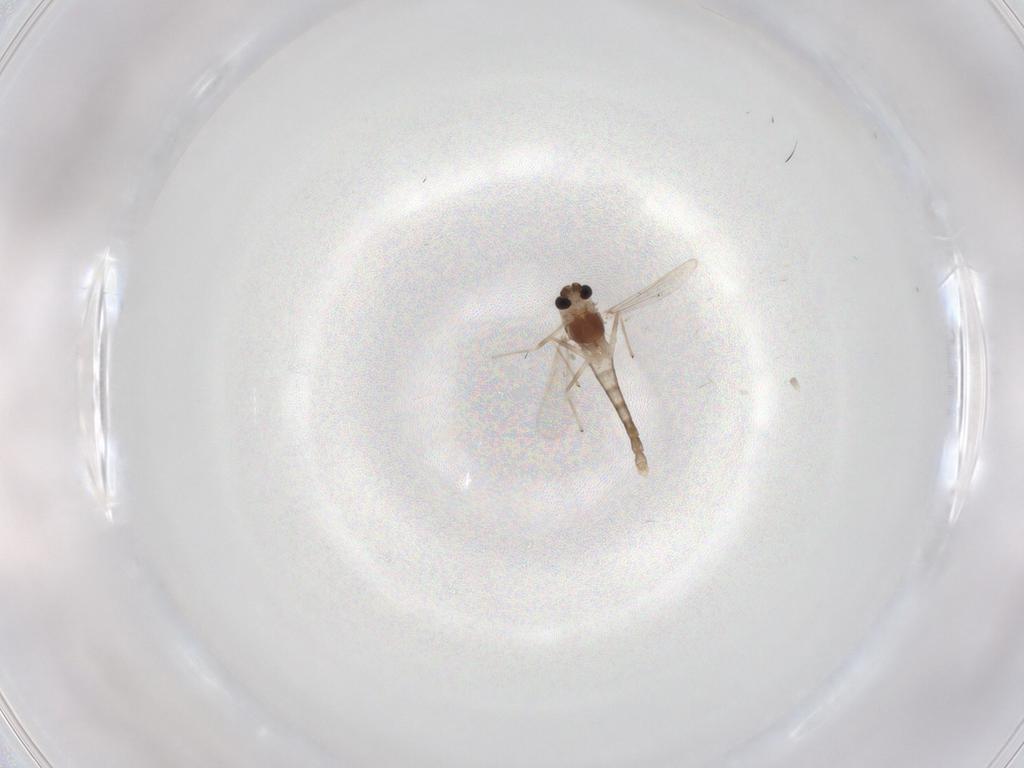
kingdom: Animalia
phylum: Arthropoda
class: Insecta
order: Diptera
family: Chironomidae
